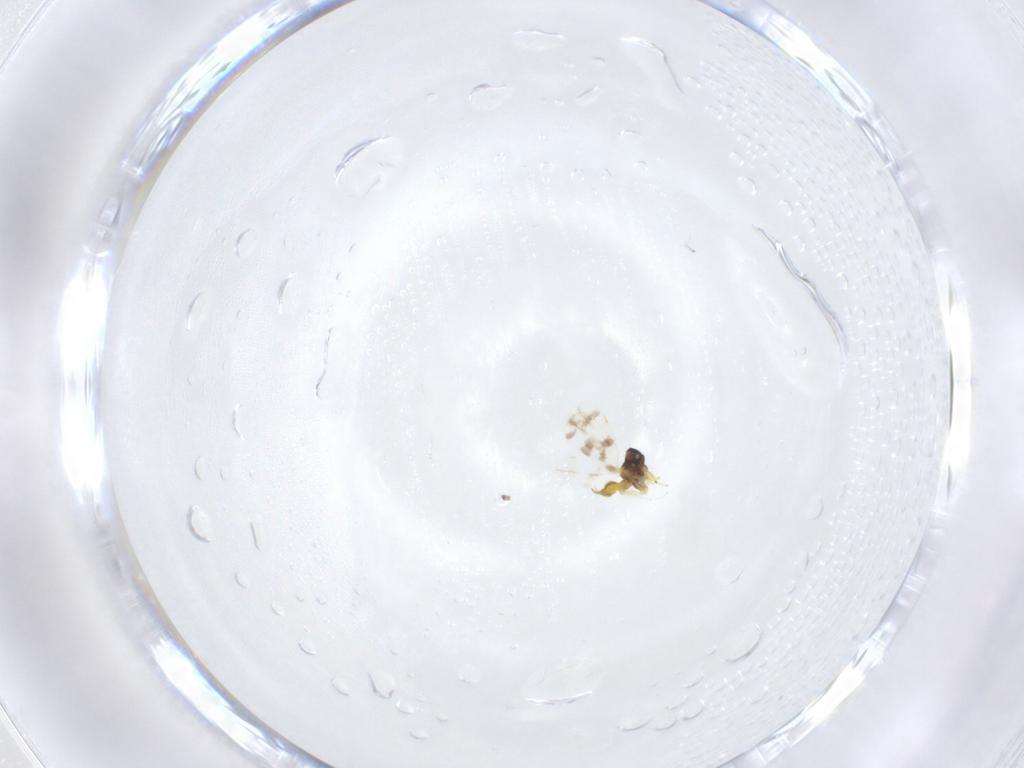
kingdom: Animalia
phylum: Arthropoda
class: Insecta
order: Hemiptera
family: Aleyrodidae
